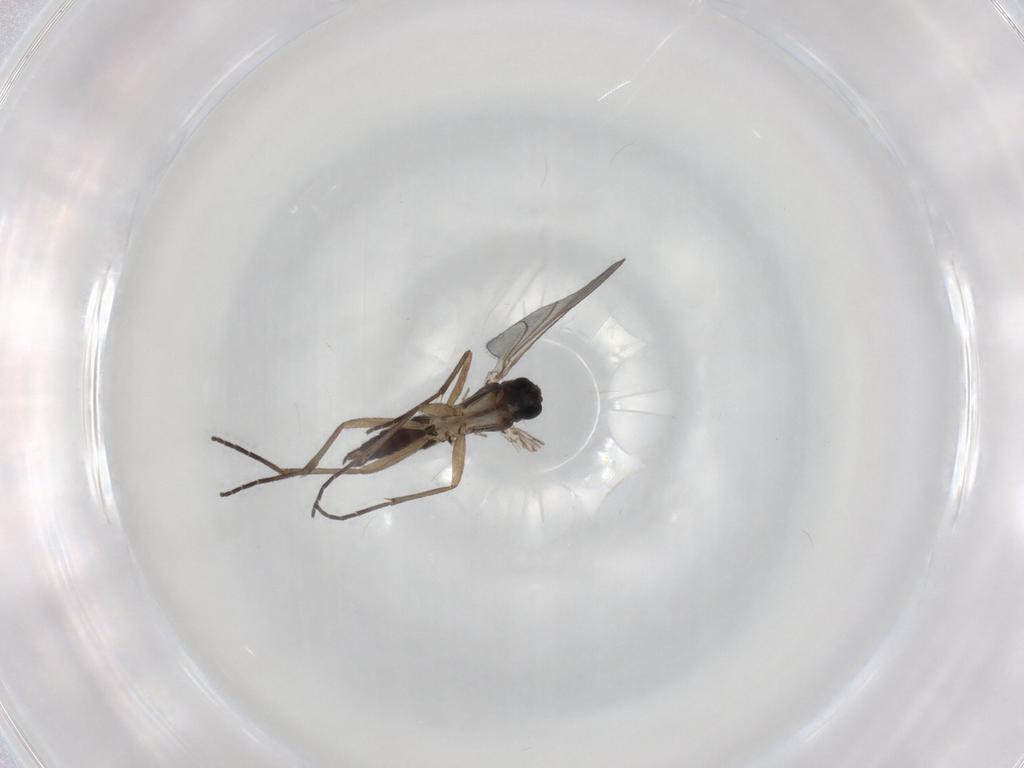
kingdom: Animalia
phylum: Arthropoda
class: Insecta
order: Diptera
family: Sciaridae
